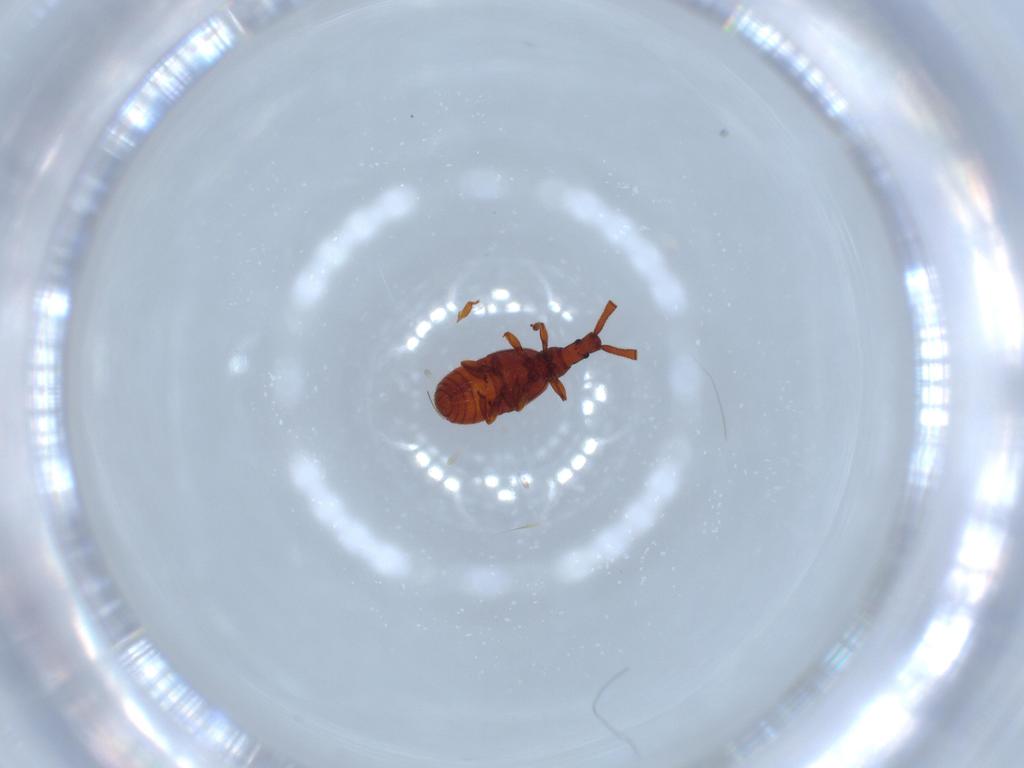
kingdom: Animalia
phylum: Arthropoda
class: Insecta
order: Coleoptera
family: Staphylinidae
